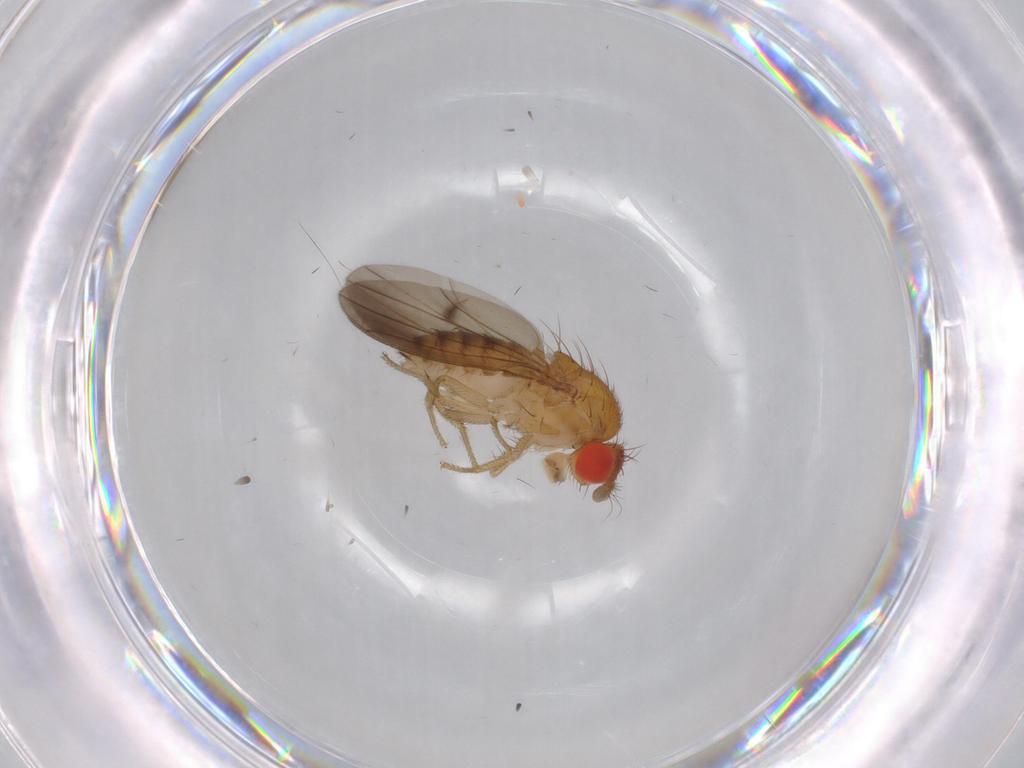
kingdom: Animalia
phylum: Arthropoda
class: Insecta
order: Diptera
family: Drosophilidae
